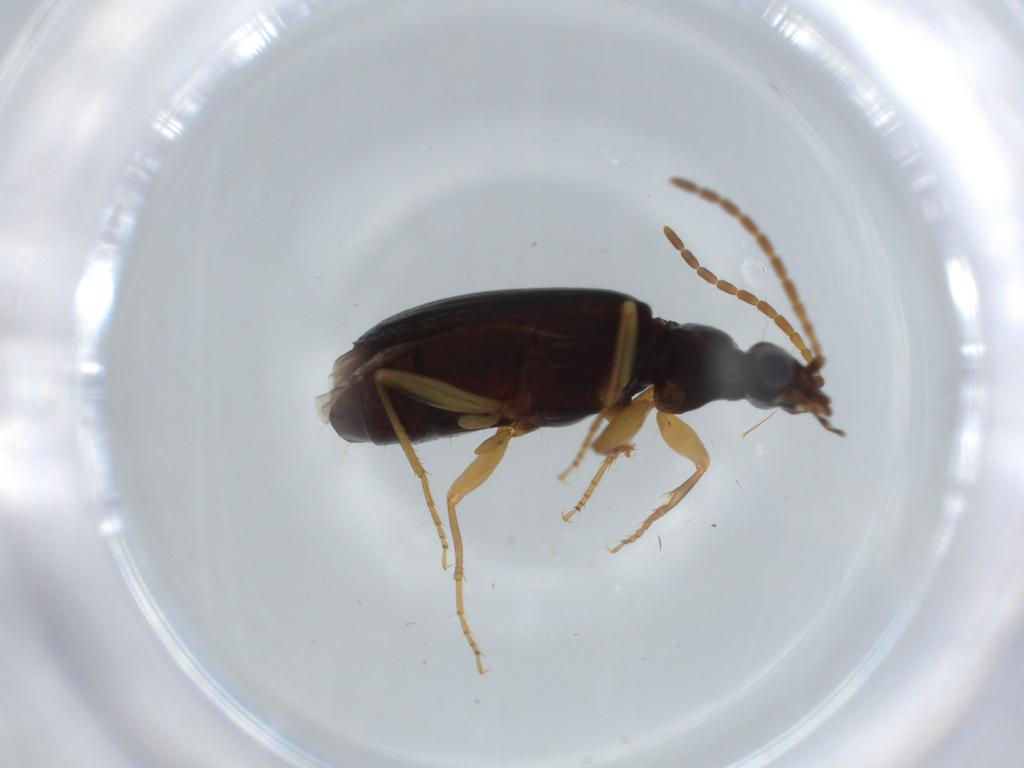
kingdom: Animalia
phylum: Arthropoda
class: Insecta
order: Coleoptera
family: Carabidae
